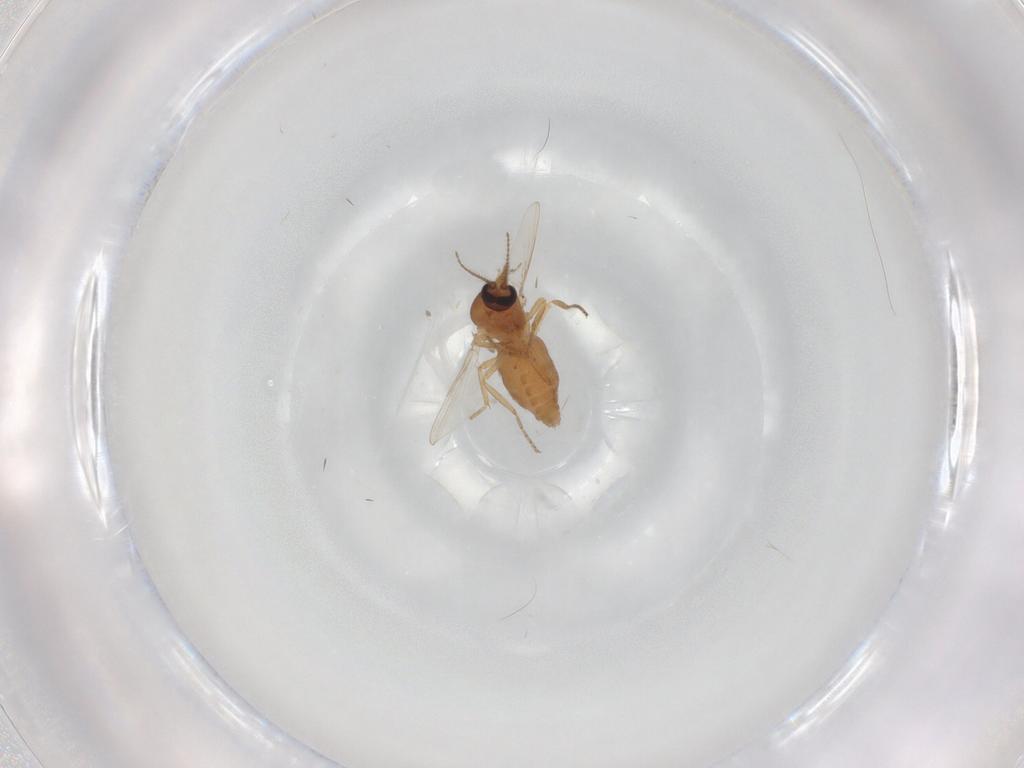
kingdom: Animalia
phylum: Arthropoda
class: Insecta
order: Diptera
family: Ceratopogonidae
